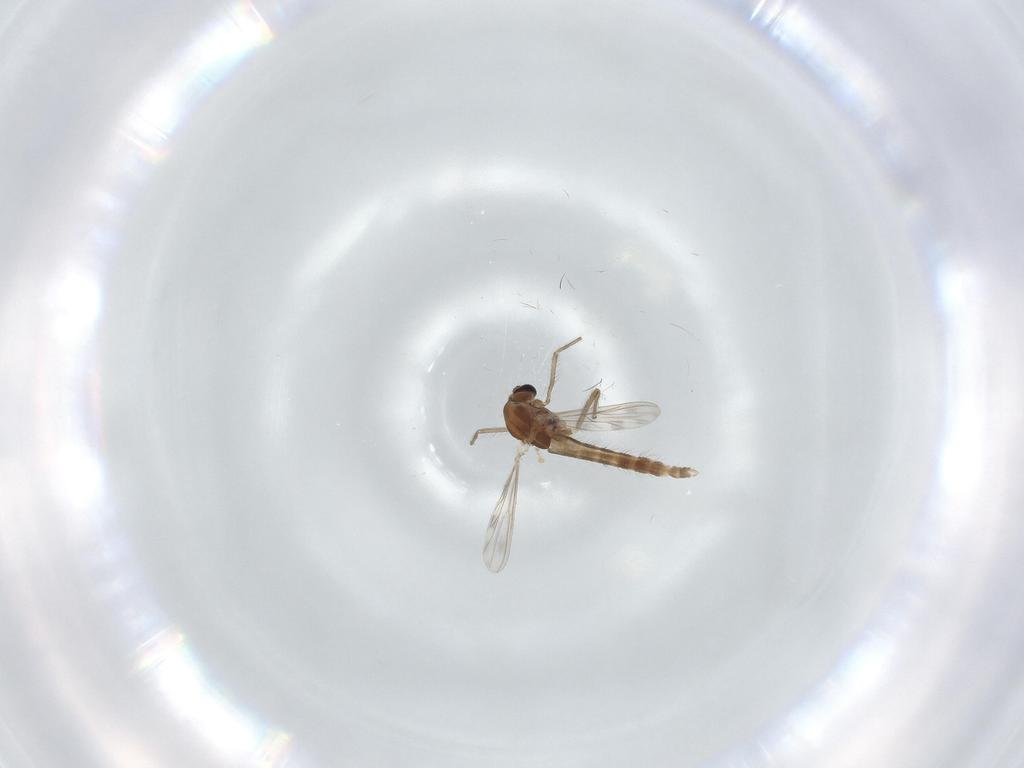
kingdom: Animalia
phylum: Arthropoda
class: Insecta
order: Diptera
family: Chironomidae
